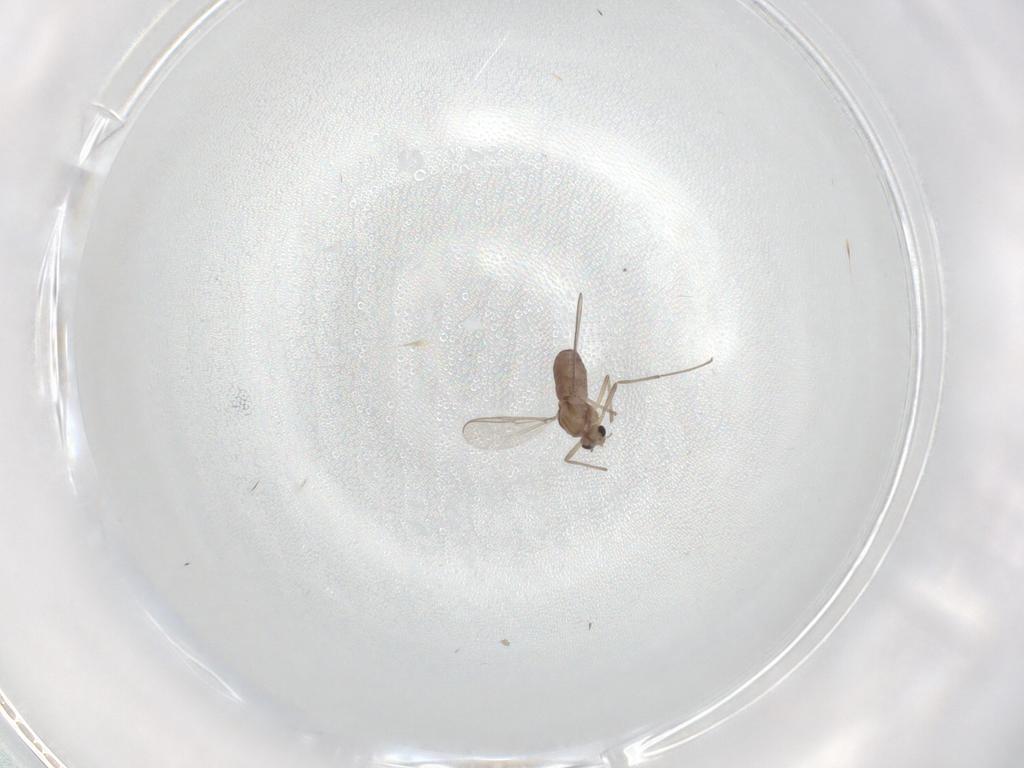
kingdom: Animalia
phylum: Arthropoda
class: Insecta
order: Diptera
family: Chironomidae
